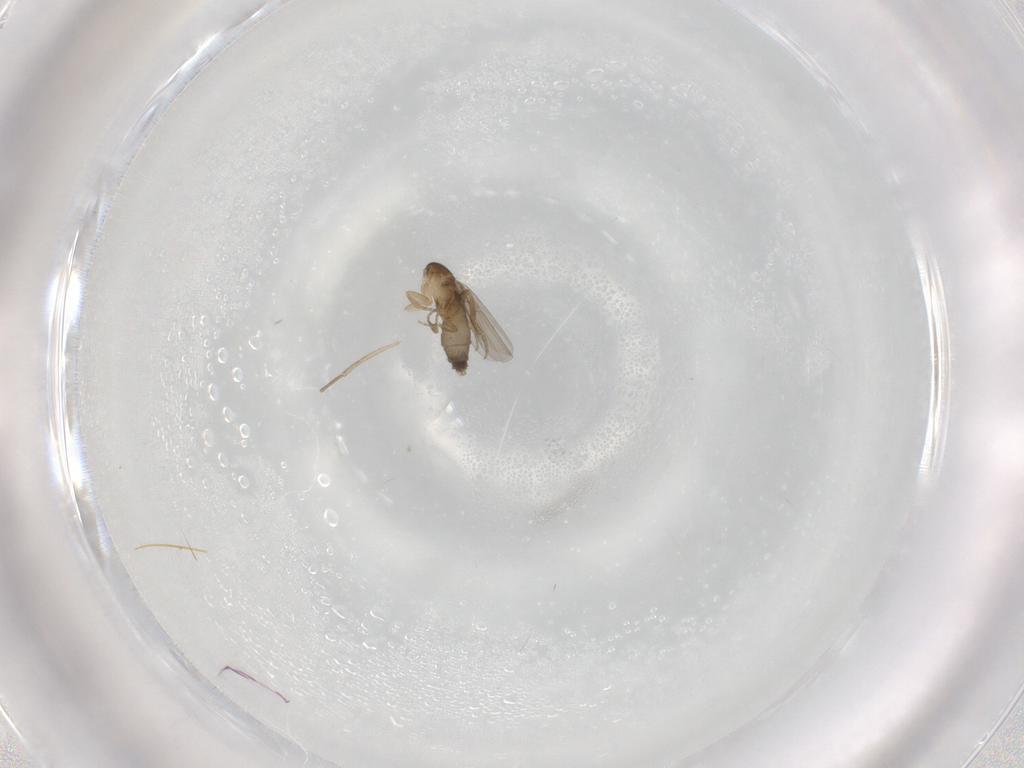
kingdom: Animalia
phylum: Arthropoda
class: Insecta
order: Diptera
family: Phoridae
